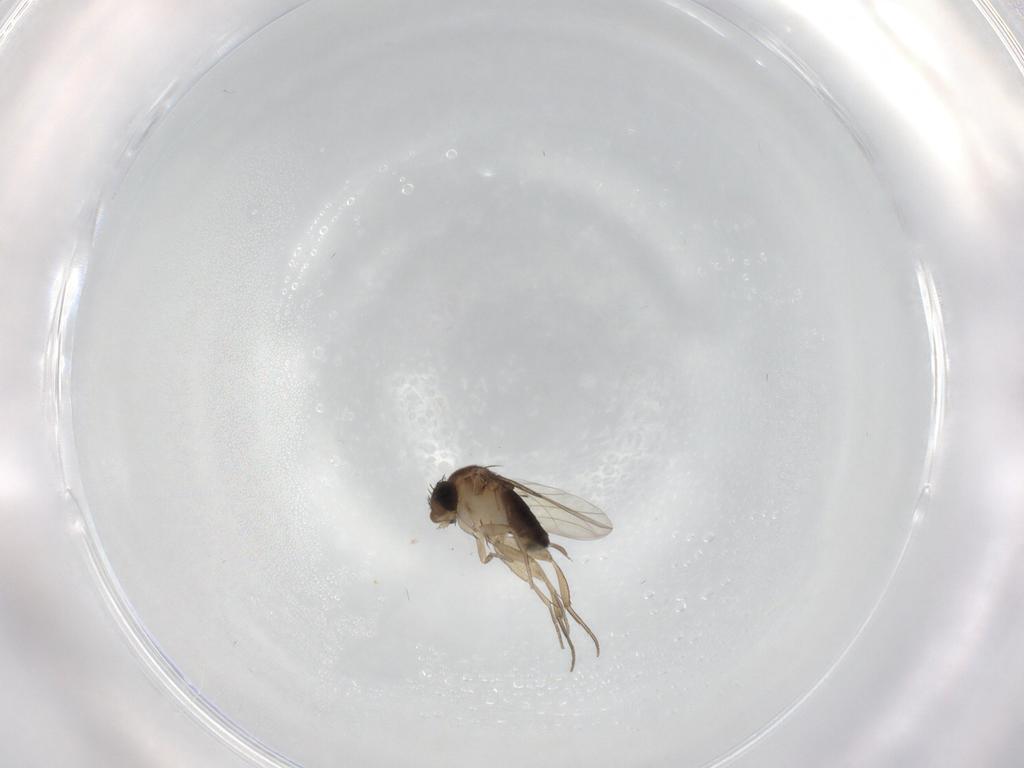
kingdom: Animalia
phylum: Arthropoda
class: Insecta
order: Diptera
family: Phoridae
